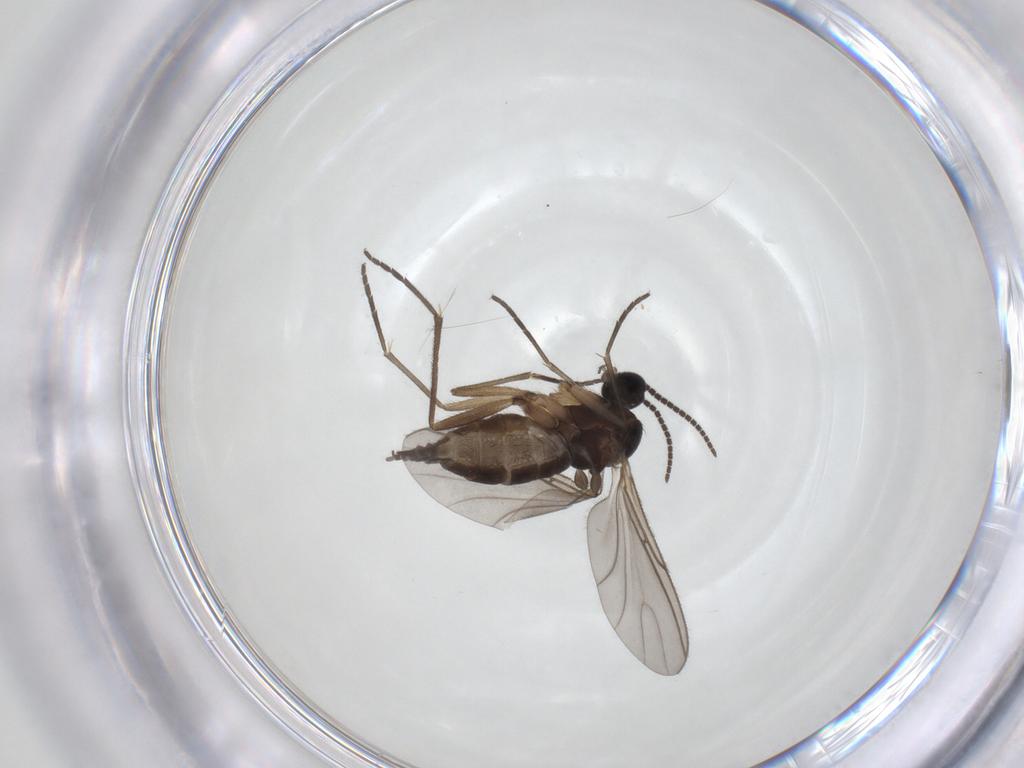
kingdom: Animalia
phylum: Arthropoda
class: Insecta
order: Diptera
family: Sciaridae
